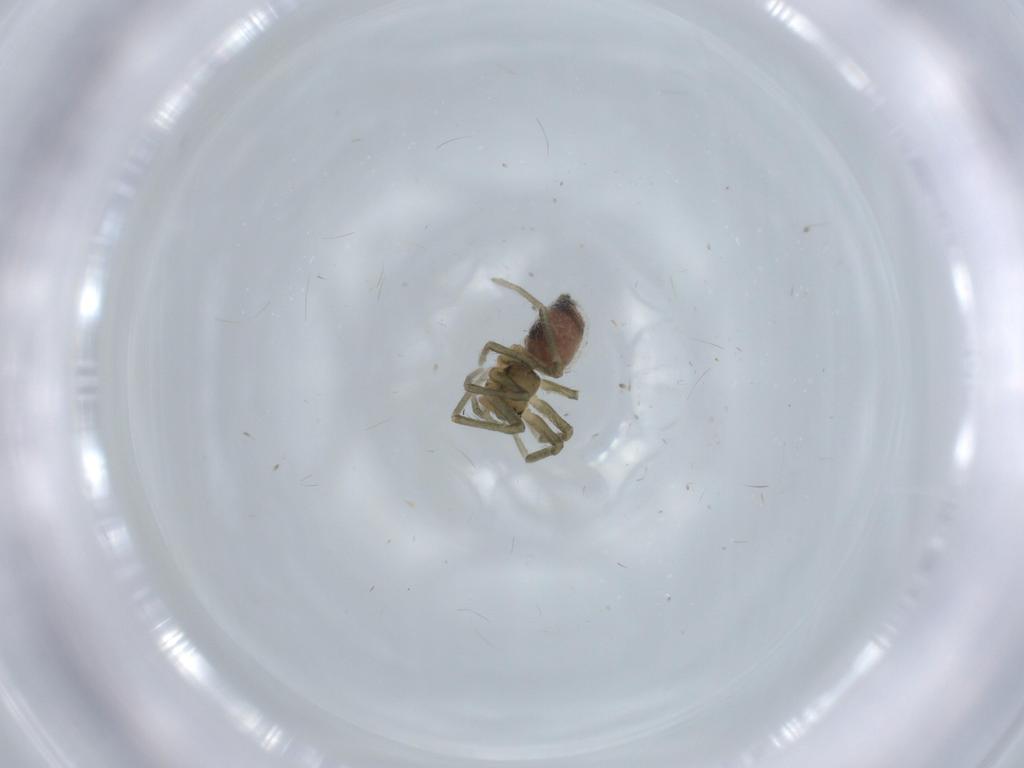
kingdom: Animalia
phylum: Arthropoda
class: Arachnida
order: Araneae
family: Linyphiidae
